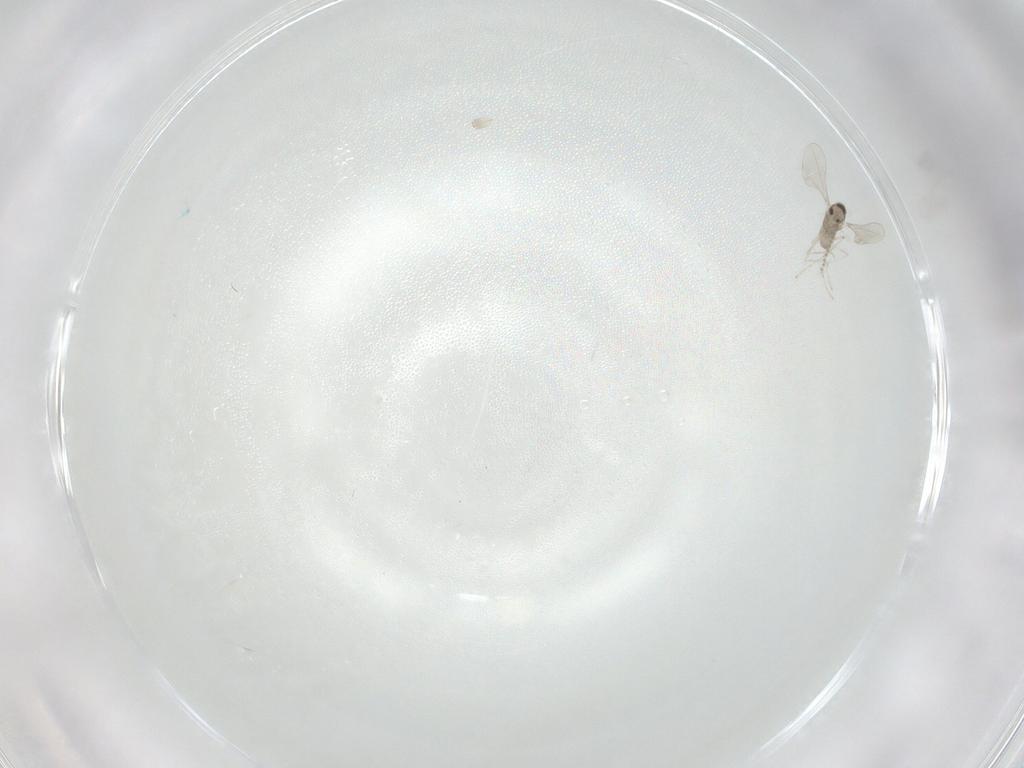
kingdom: Animalia
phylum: Arthropoda
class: Insecta
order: Diptera
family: Cecidomyiidae
